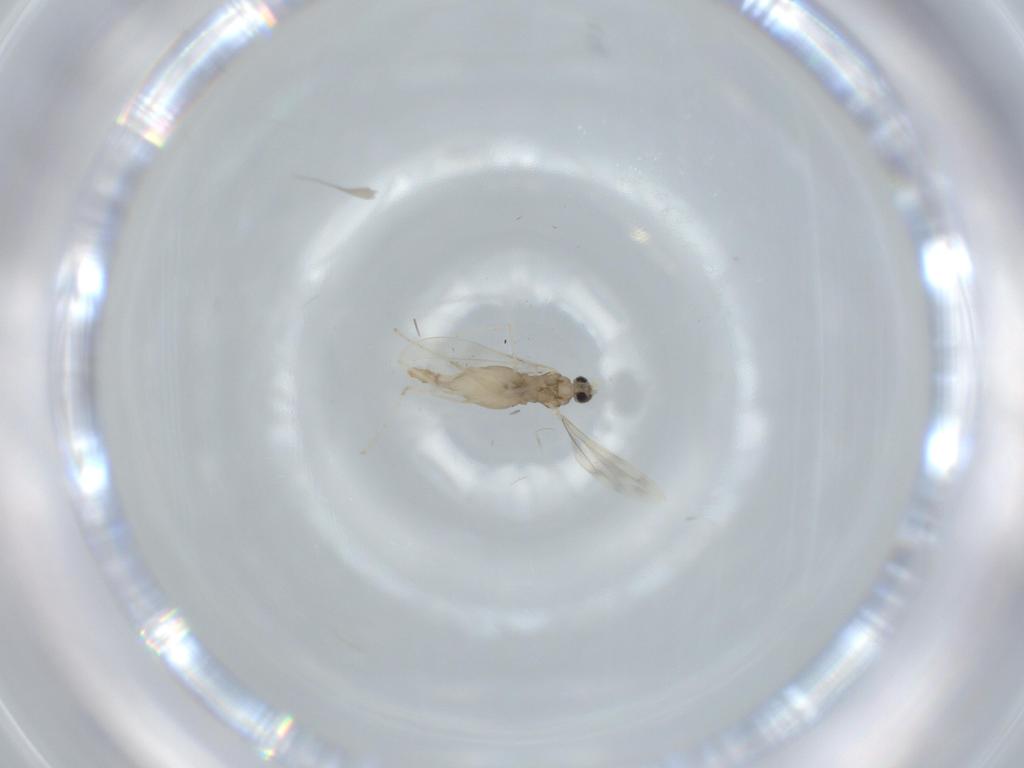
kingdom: Animalia
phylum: Arthropoda
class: Insecta
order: Diptera
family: Cecidomyiidae
